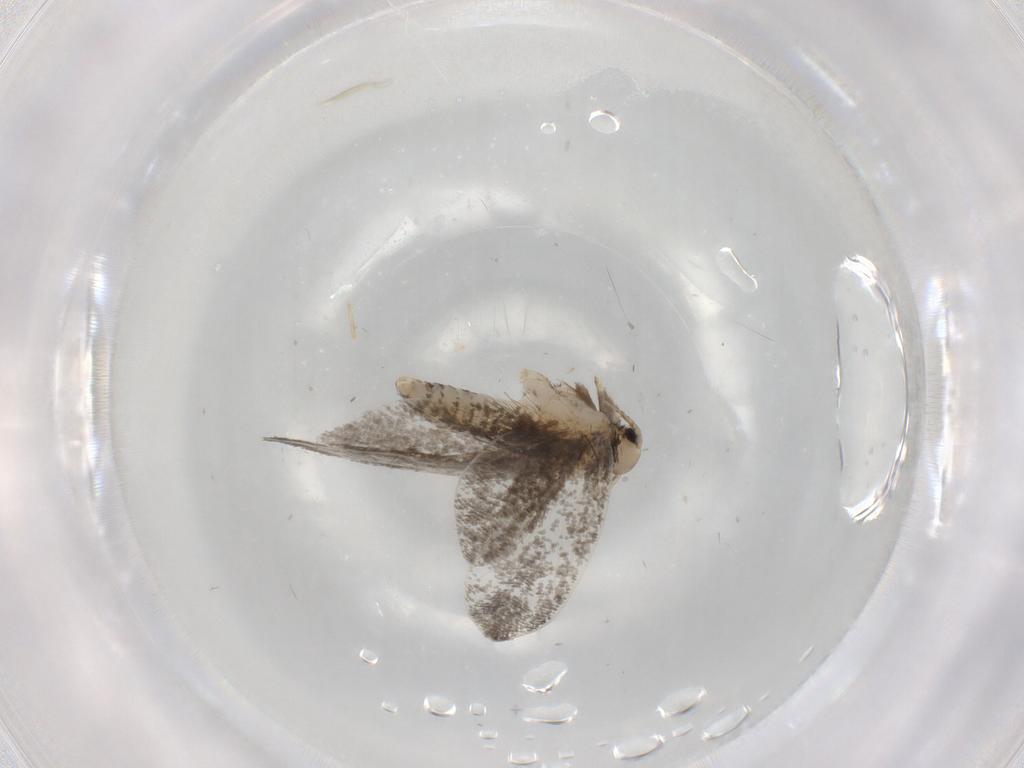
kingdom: Animalia
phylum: Arthropoda
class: Insecta
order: Lepidoptera
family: Psychidae
